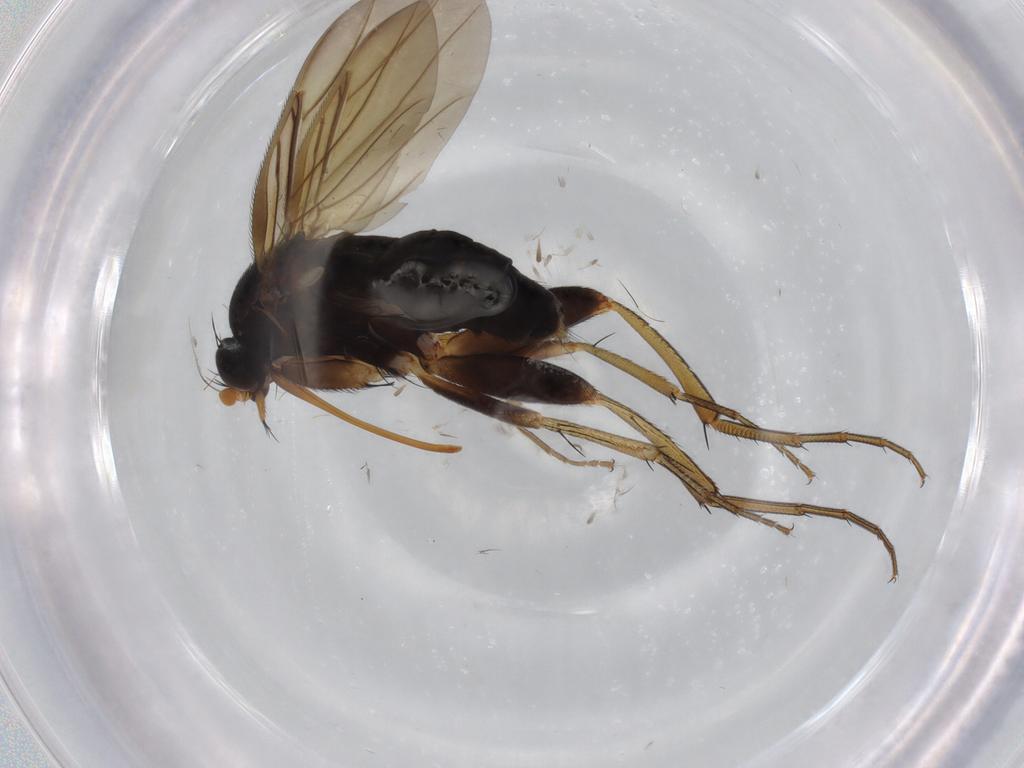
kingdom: Animalia
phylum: Arthropoda
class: Insecta
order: Diptera
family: Phoridae
